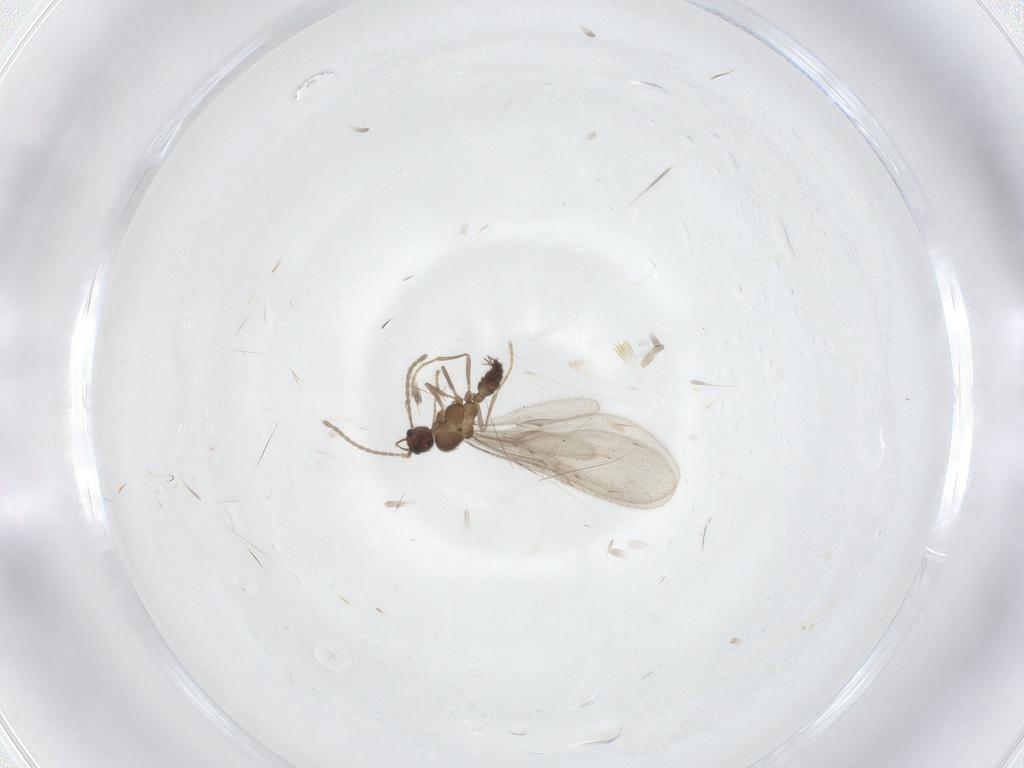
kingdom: Animalia
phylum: Arthropoda
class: Insecta
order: Hymenoptera
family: Formicidae
